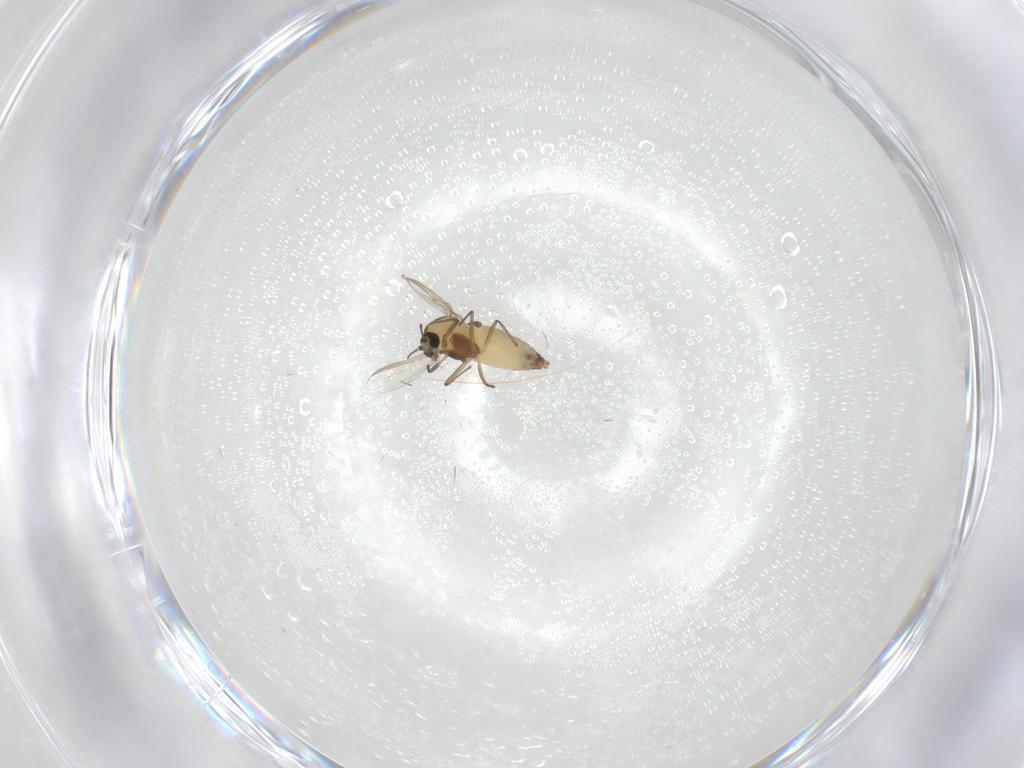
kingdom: Animalia
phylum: Arthropoda
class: Insecta
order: Diptera
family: Chironomidae
